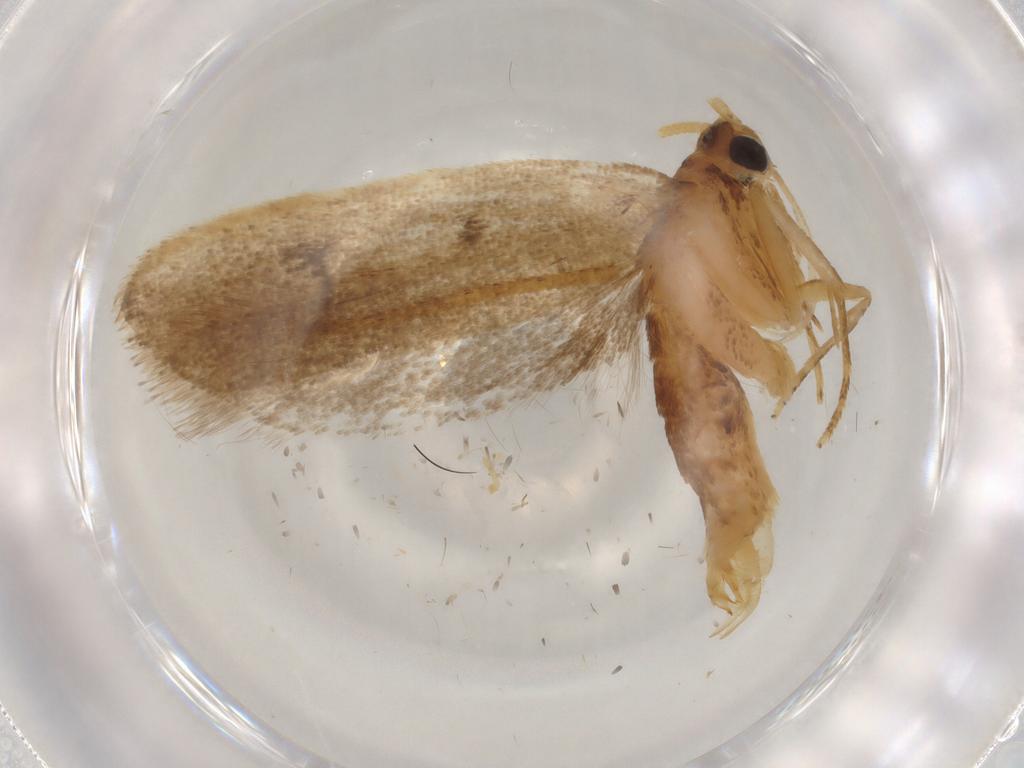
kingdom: Animalia
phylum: Arthropoda
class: Insecta
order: Lepidoptera
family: Lecithoceridae
